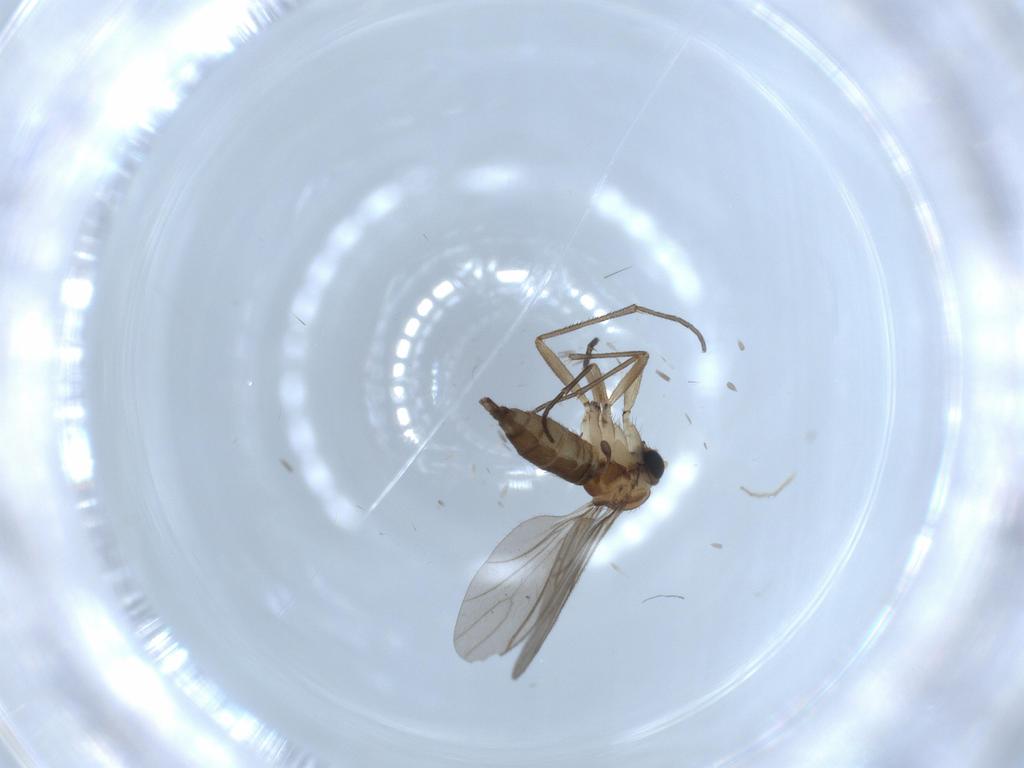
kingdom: Animalia
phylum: Arthropoda
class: Insecta
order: Diptera
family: Sciaridae
